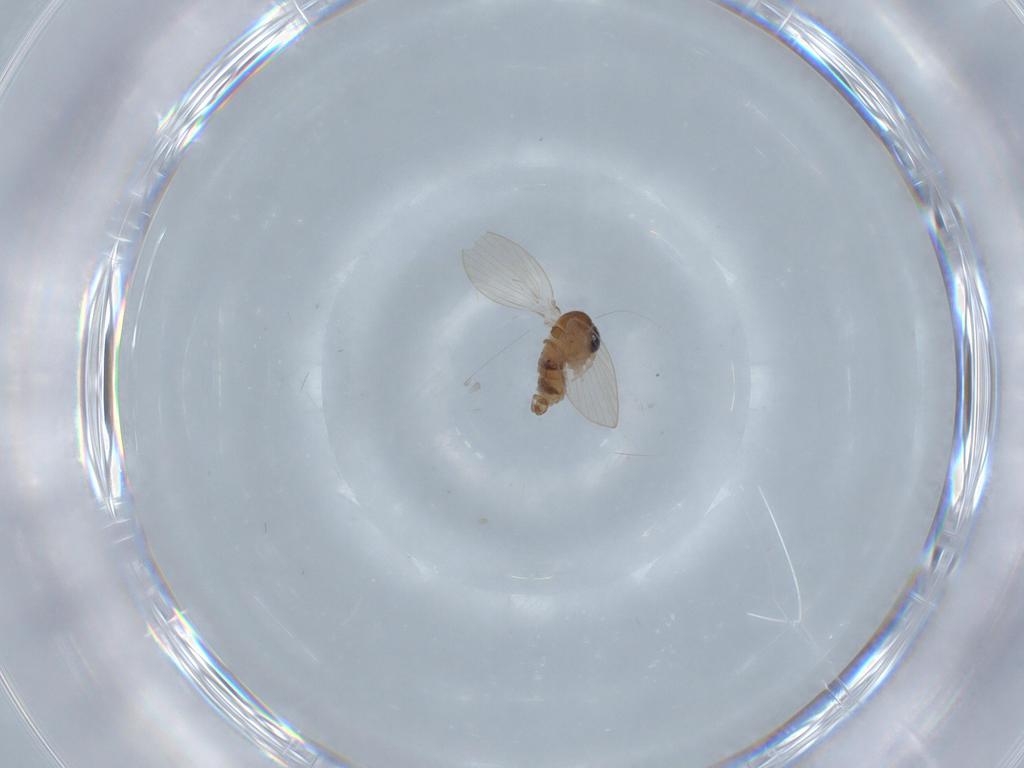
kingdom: Animalia
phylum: Arthropoda
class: Insecta
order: Diptera
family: Psychodidae
